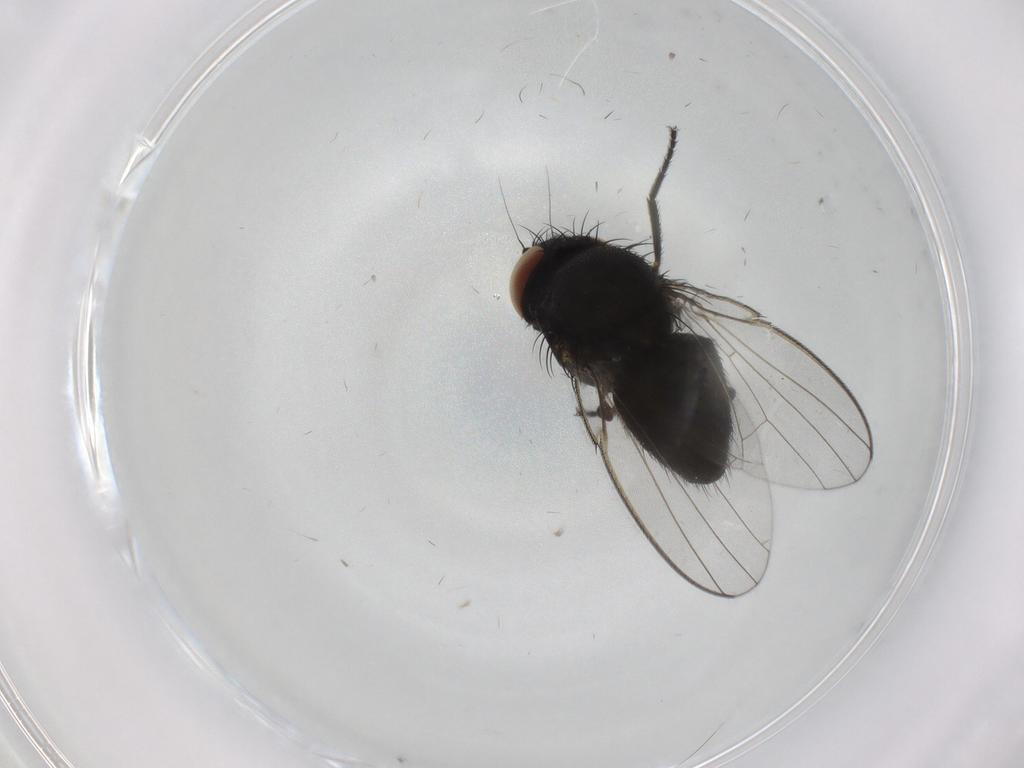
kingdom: Animalia
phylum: Arthropoda
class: Insecta
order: Diptera
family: Milichiidae
